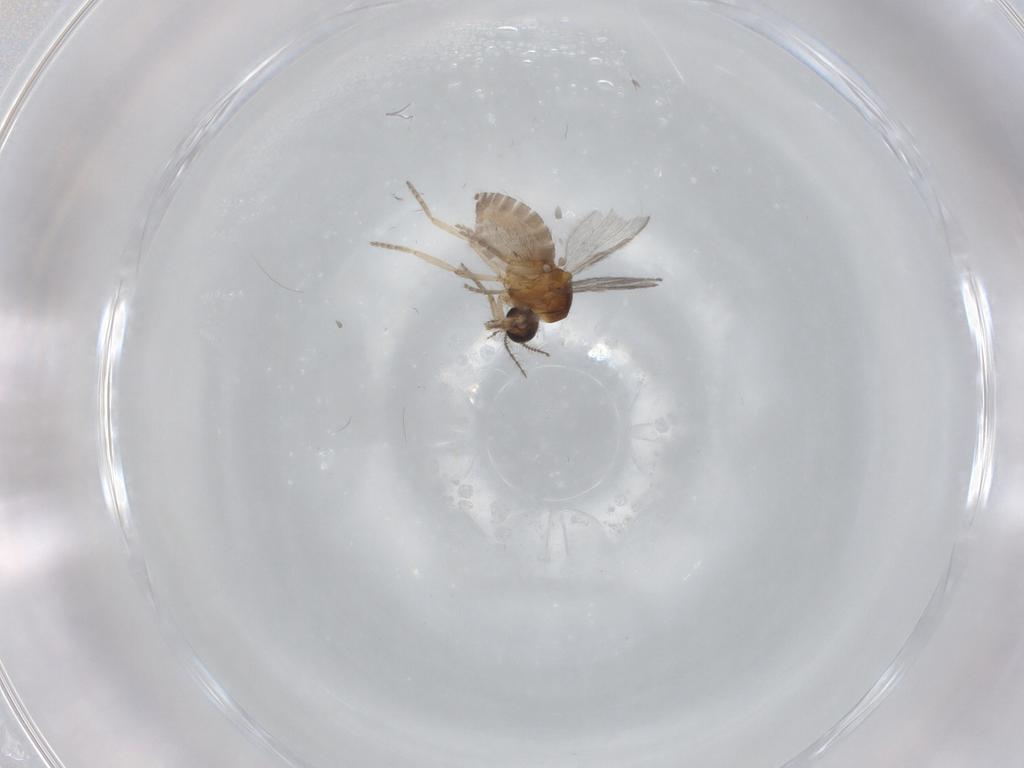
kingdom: Animalia
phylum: Arthropoda
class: Insecta
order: Diptera
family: Ceratopogonidae
